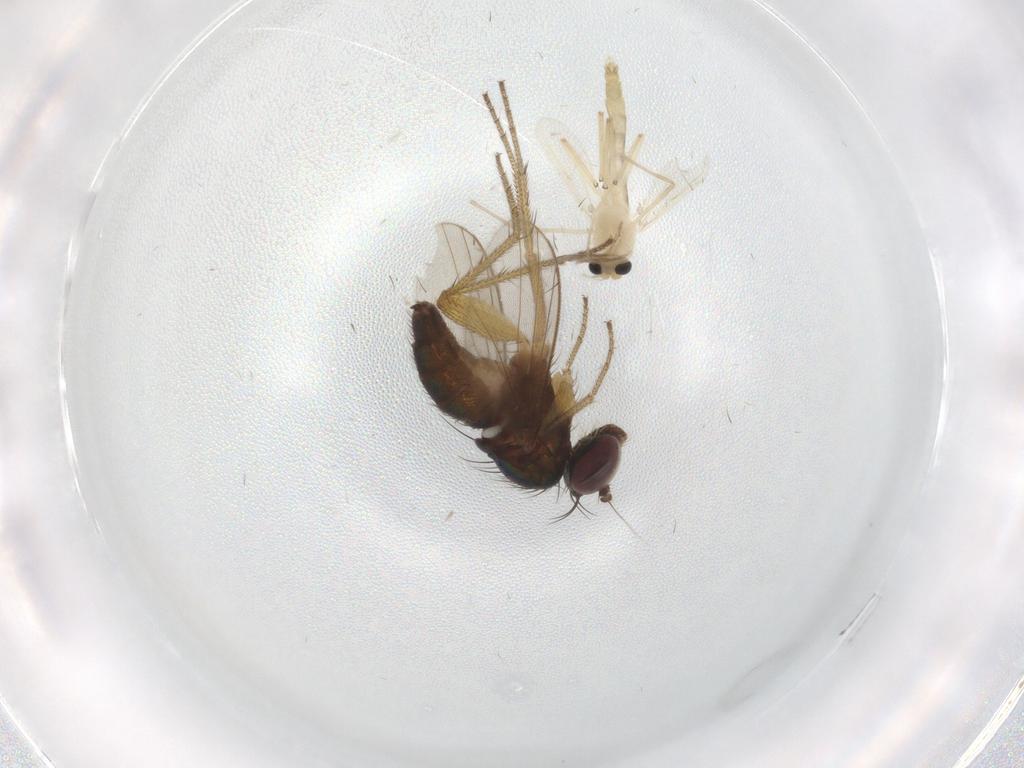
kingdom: Animalia
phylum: Arthropoda
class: Insecta
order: Diptera
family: Chironomidae
